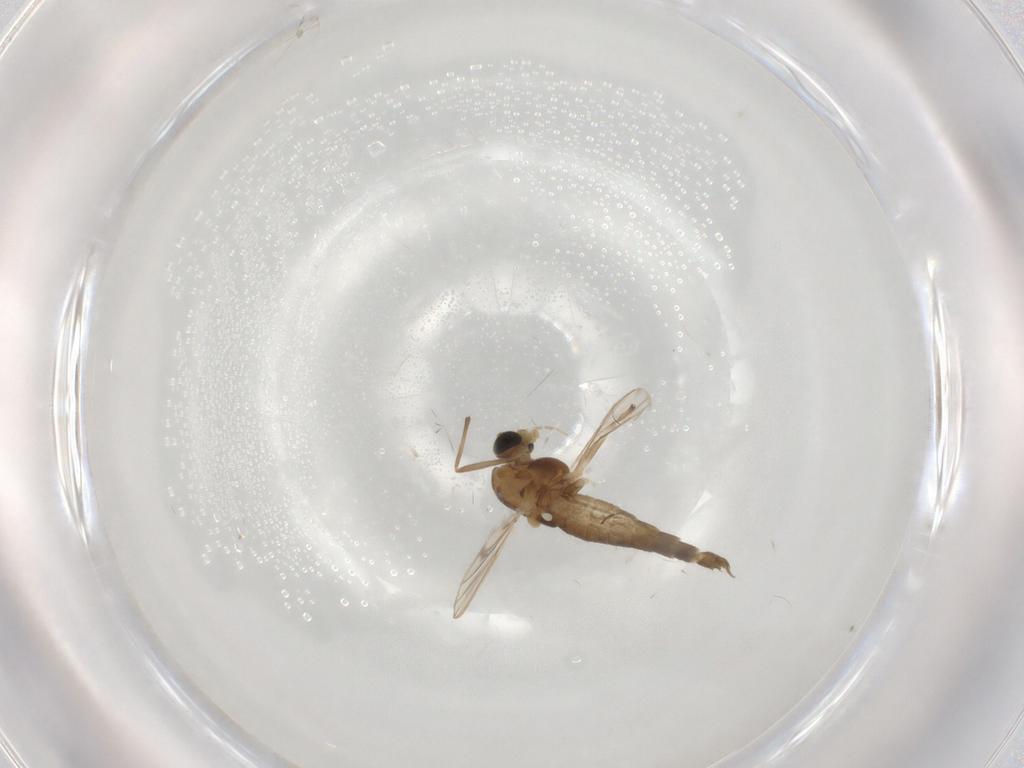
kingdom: Animalia
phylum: Arthropoda
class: Insecta
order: Diptera
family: Chironomidae
